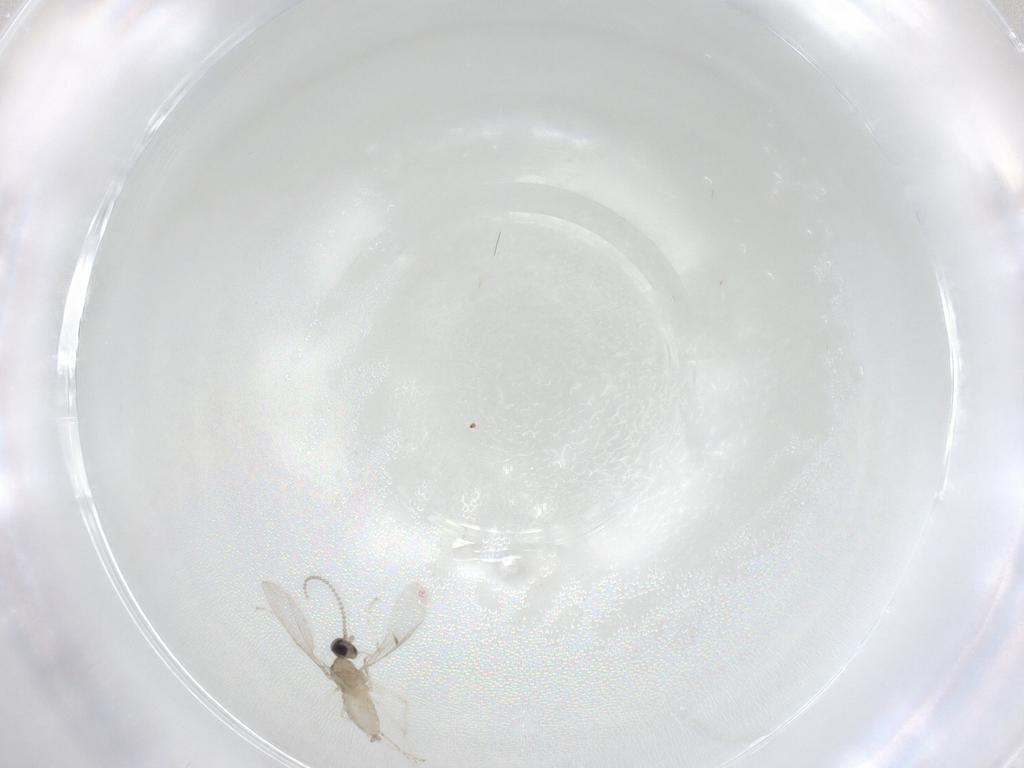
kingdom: Animalia
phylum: Arthropoda
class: Insecta
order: Diptera
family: Cecidomyiidae
